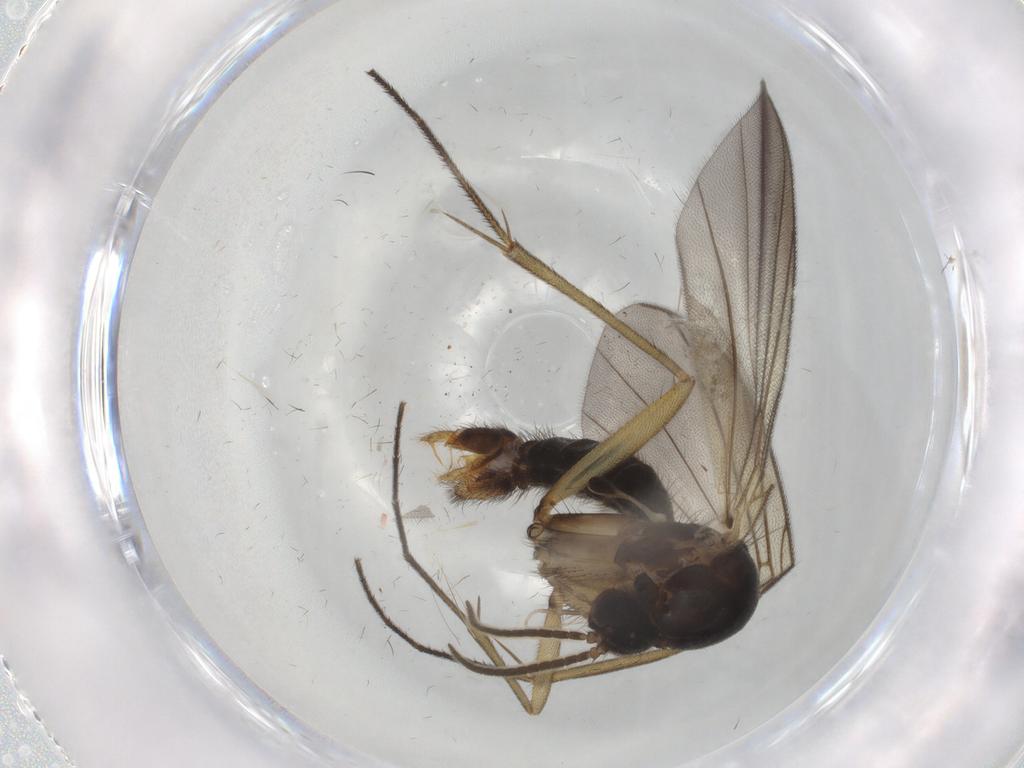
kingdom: Animalia
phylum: Arthropoda
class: Insecta
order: Diptera
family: Mycetophilidae
